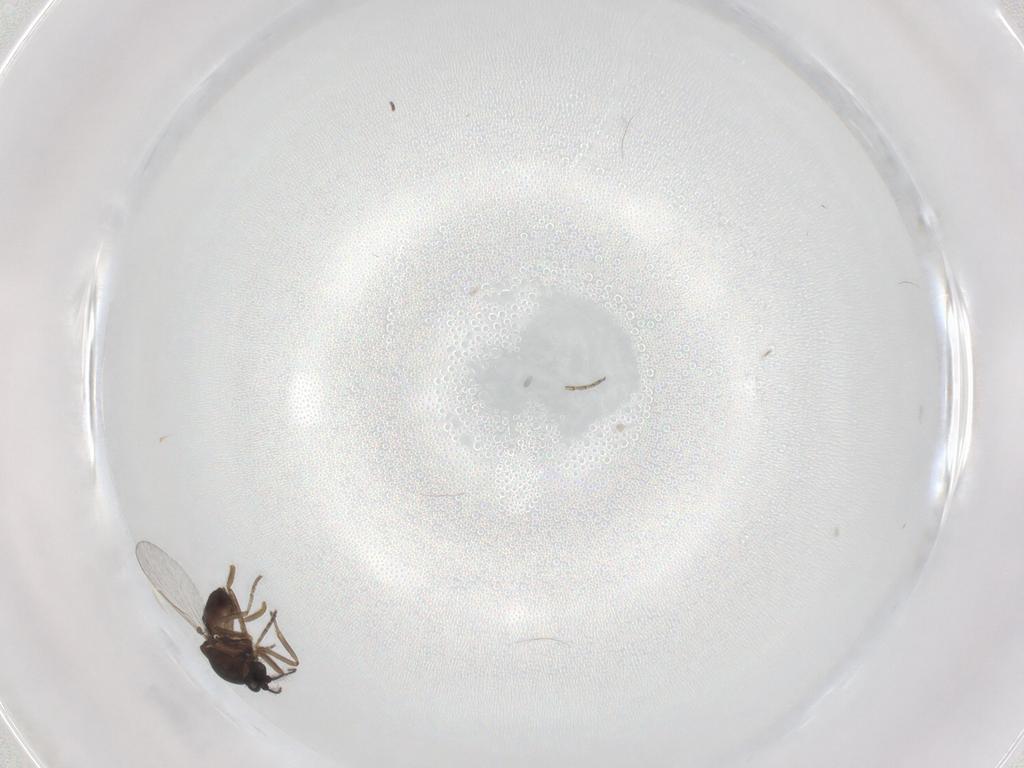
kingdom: Animalia
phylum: Arthropoda
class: Insecta
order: Diptera
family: Ceratopogonidae
